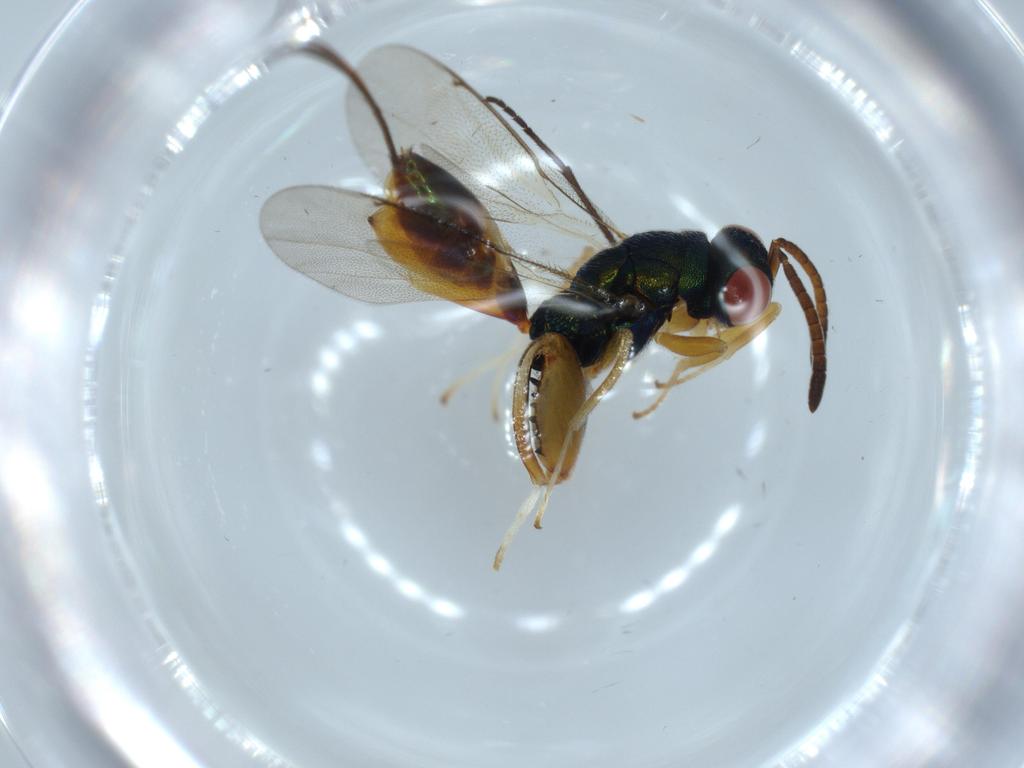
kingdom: Animalia
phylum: Arthropoda
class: Insecta
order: Hymenoptera
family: Torymidae
